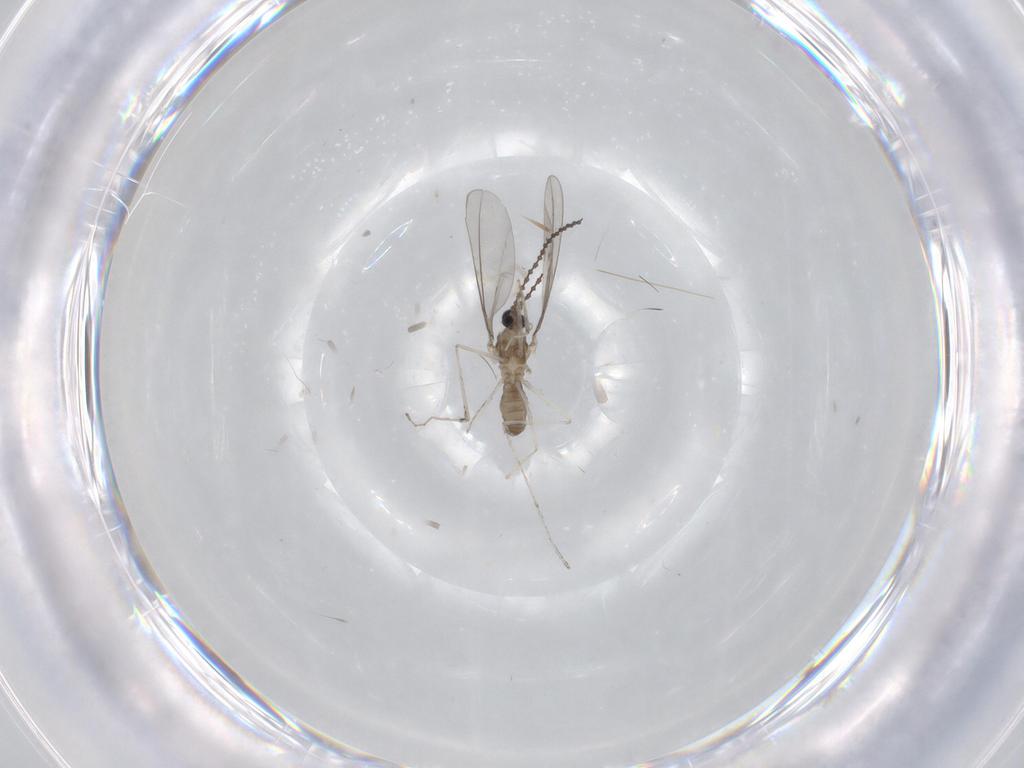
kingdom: Animalia
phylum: Arthropoda
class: Insecta
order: Diptera
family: Cecidomyiidae
